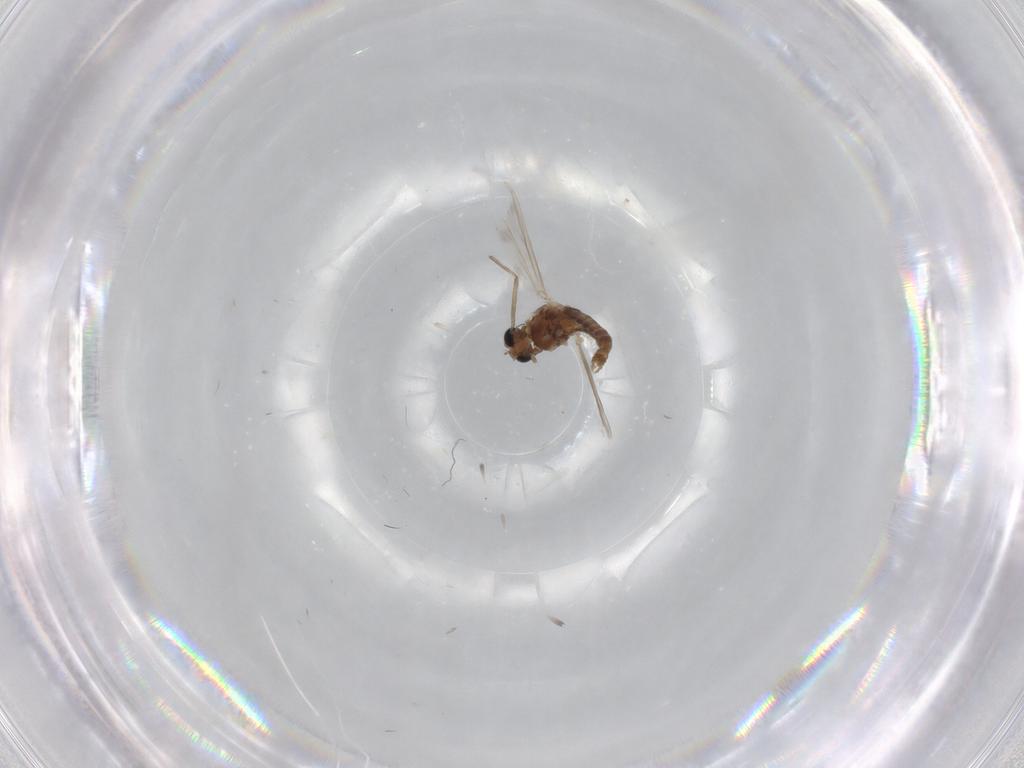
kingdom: Animalia
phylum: Arthropoda
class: Insecta
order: Diptera
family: Chironomidae
